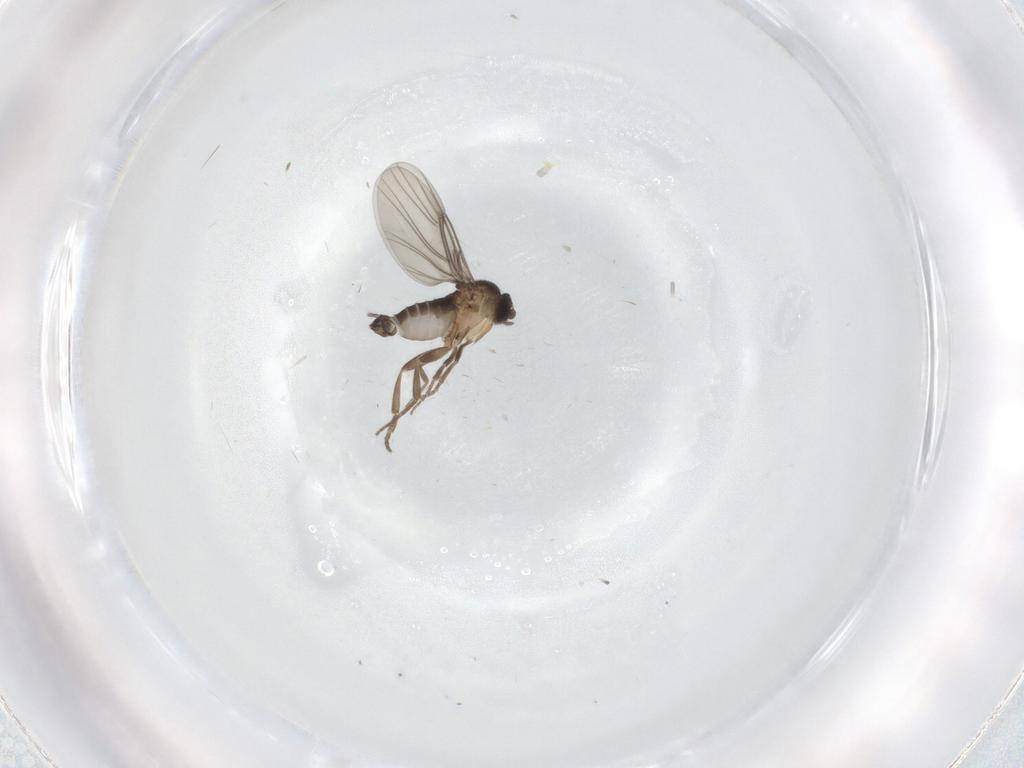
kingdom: Animalia
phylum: Arthropoda
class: Insecta
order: Diptera
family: Phoridae
